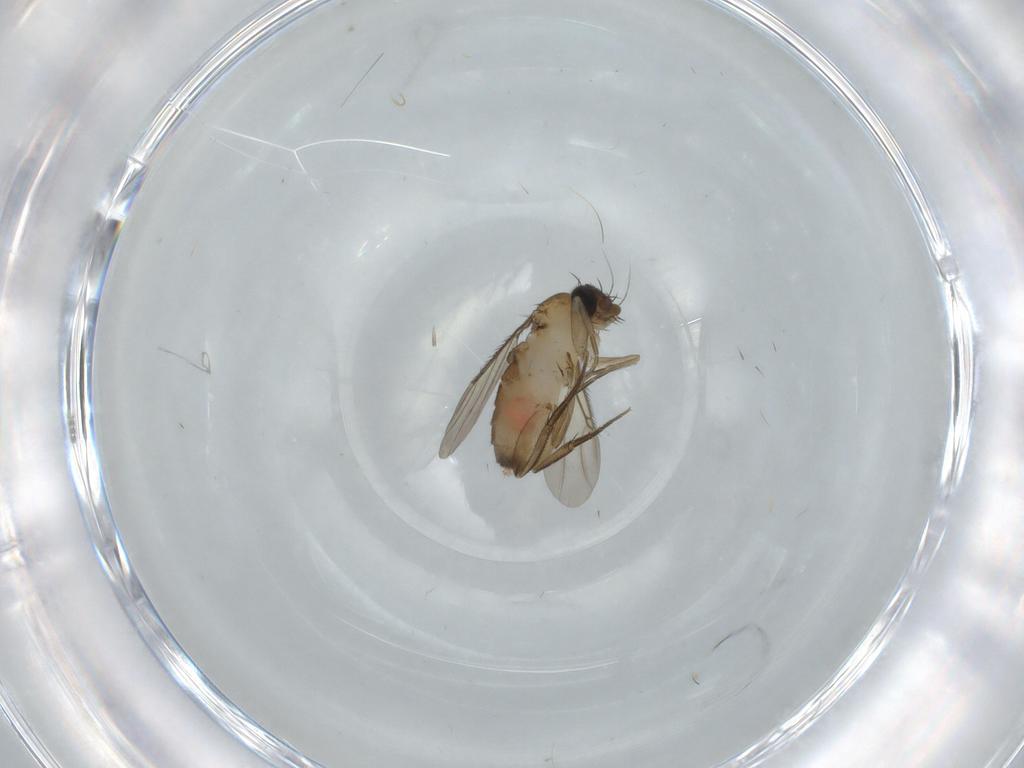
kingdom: Animalia
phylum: Arthropoda
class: Insecta
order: Diptera
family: Phoridae
